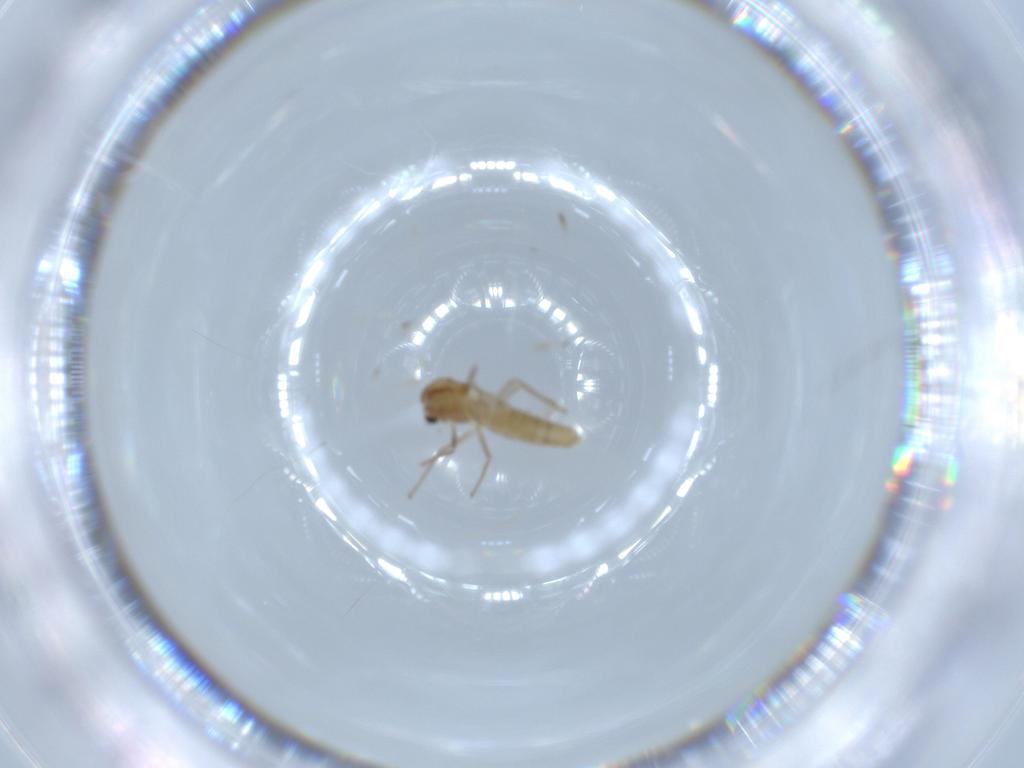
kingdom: Animalia
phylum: Arthropoda
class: Insecta
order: Diptera
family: Chironomidae
